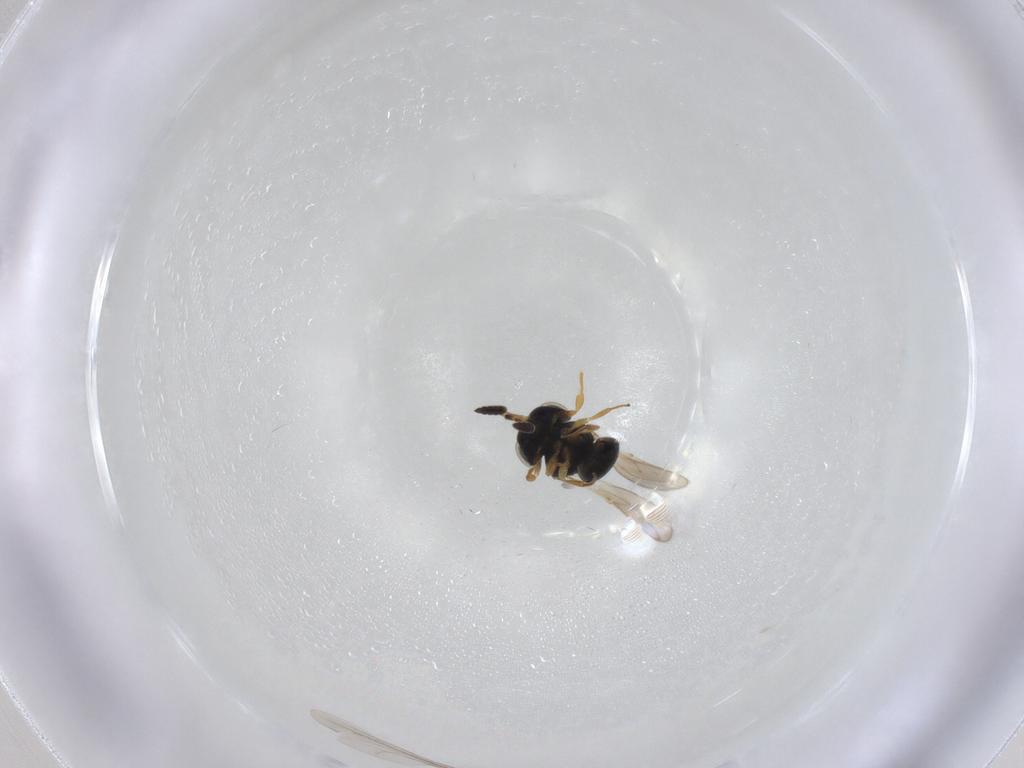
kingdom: Animalia
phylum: Arthropoda
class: Insecta
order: Hymenoptera
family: Scelionidae
